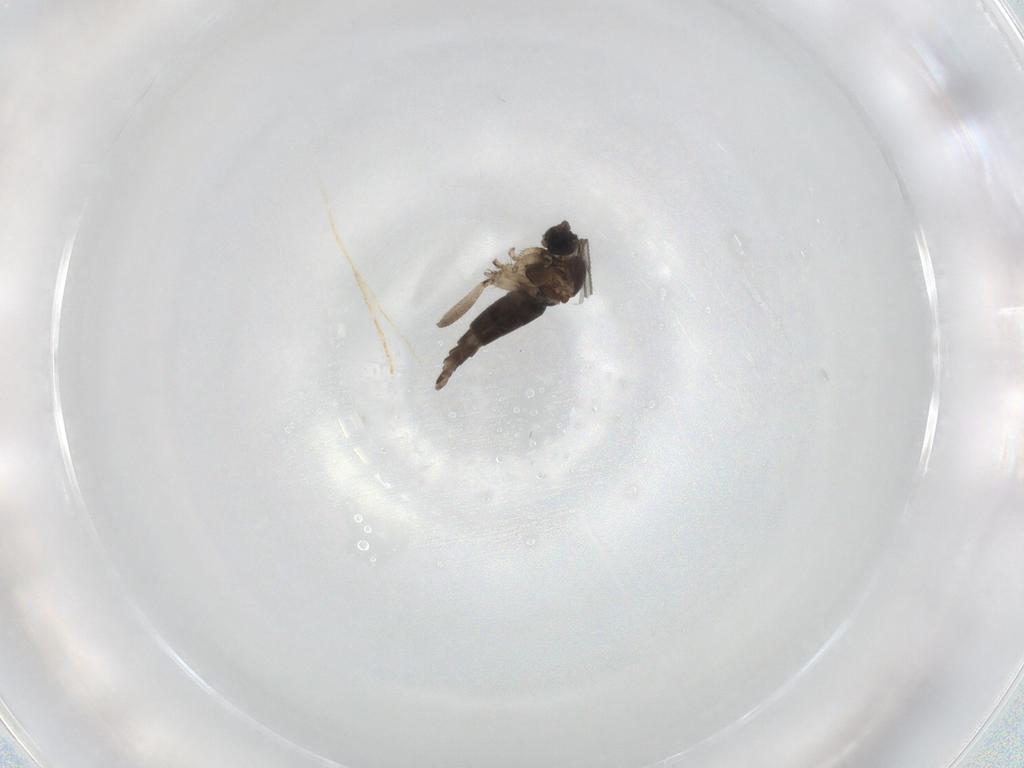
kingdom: Animalia
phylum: Arthropoda
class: Insecta
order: Diptera
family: Sciaridae
